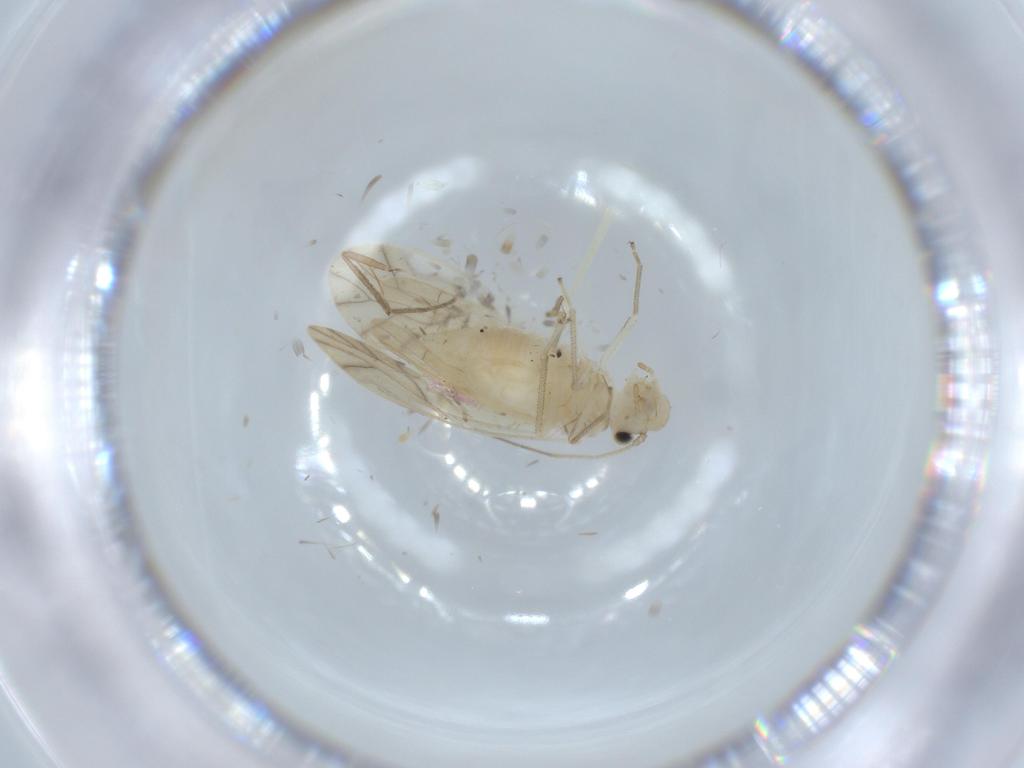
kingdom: Animalia
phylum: Arthropoda
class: Insecta
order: Psocodea
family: Caeciliusidae
